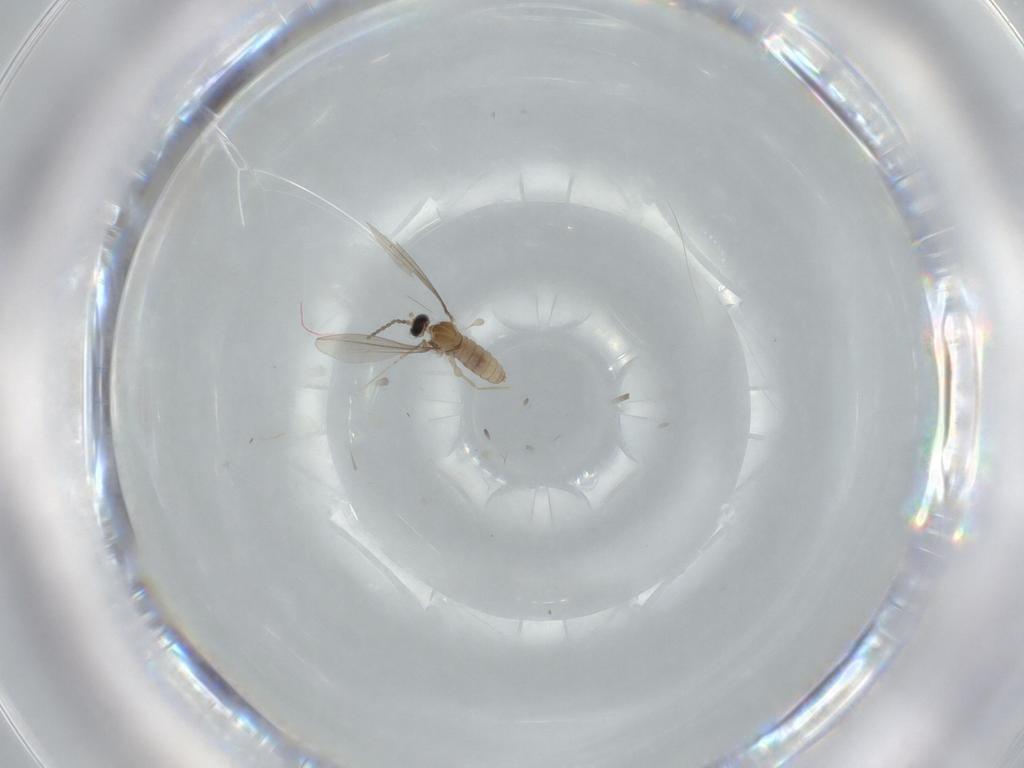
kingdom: Animalia
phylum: Arthropoda
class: Insecta
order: Diptera
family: Cecidomyiidae
